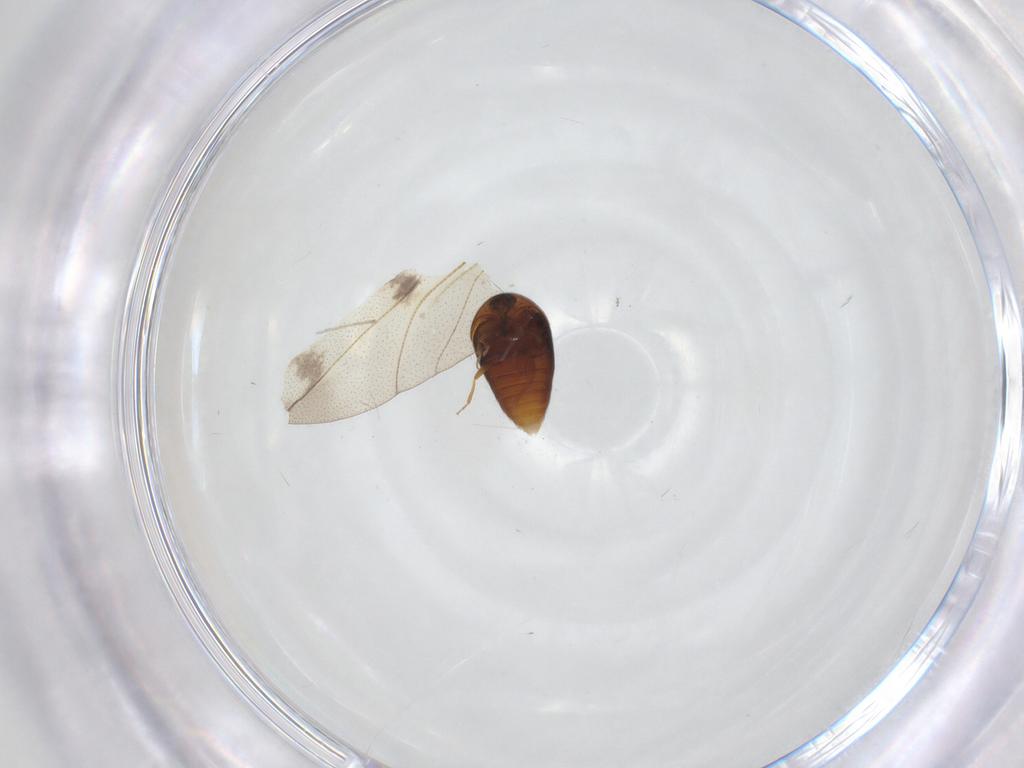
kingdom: Animalia
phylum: Arthropoda
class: Insecta
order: Coleoptera
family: Corylophidae
